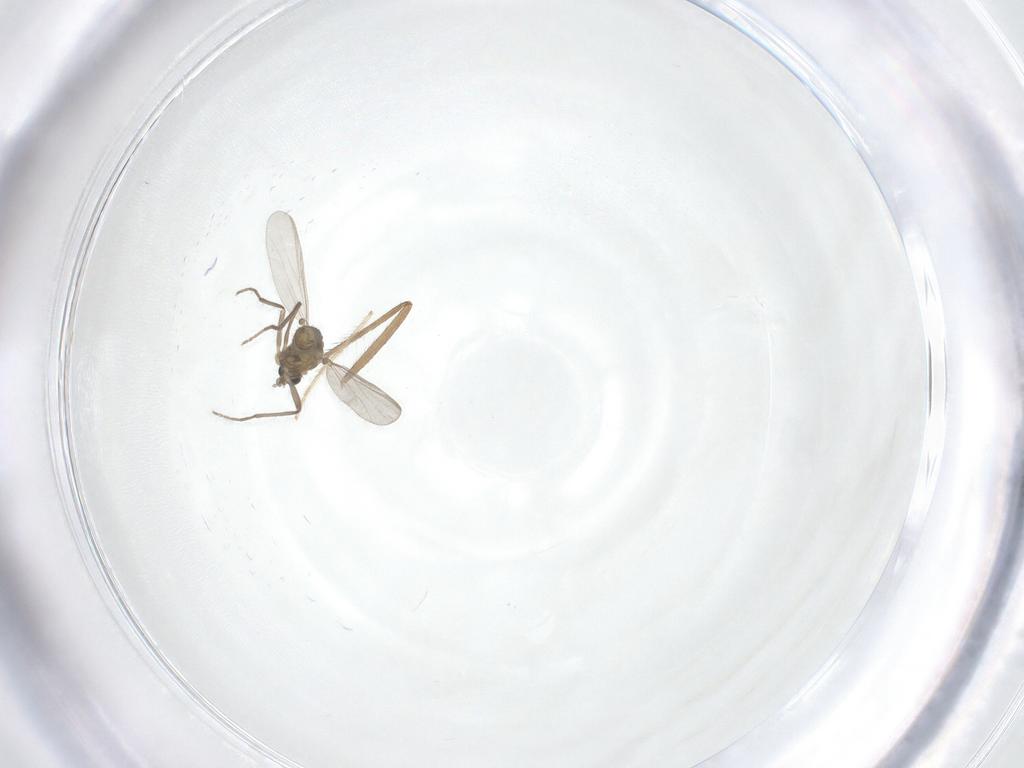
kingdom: Animalia
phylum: Arthropoda
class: Insecta
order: Diptera
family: Chironomidae
